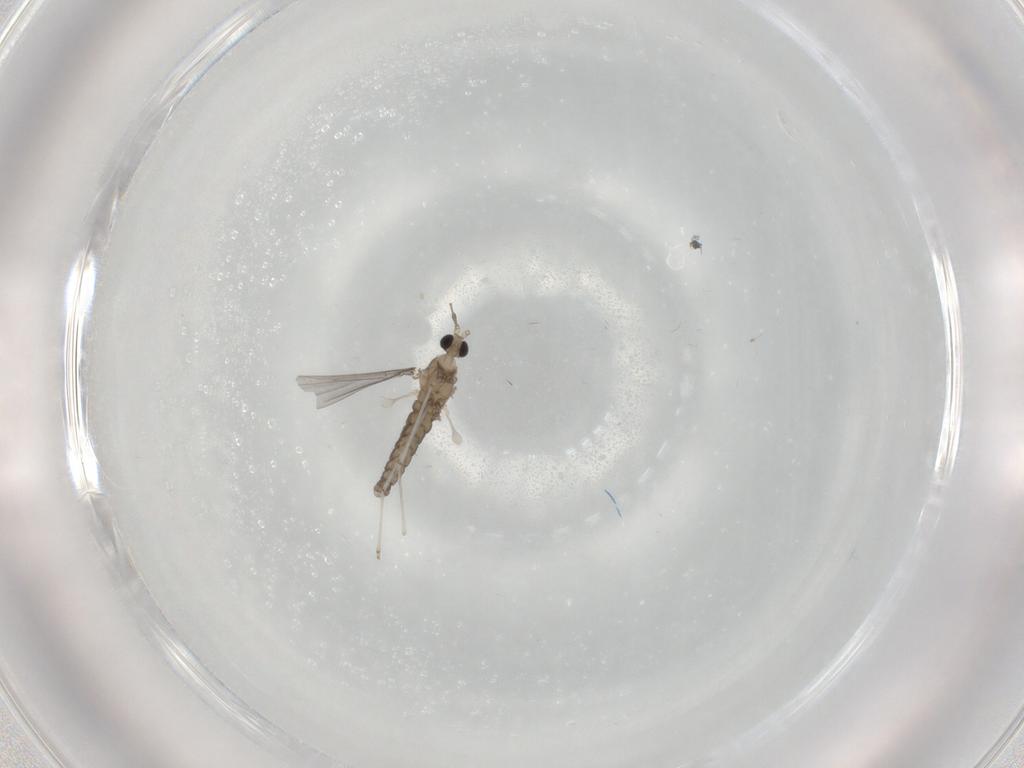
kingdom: Animalia
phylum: Arthropoda
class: Insecta
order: Diptera
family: Cecidomyiidae
